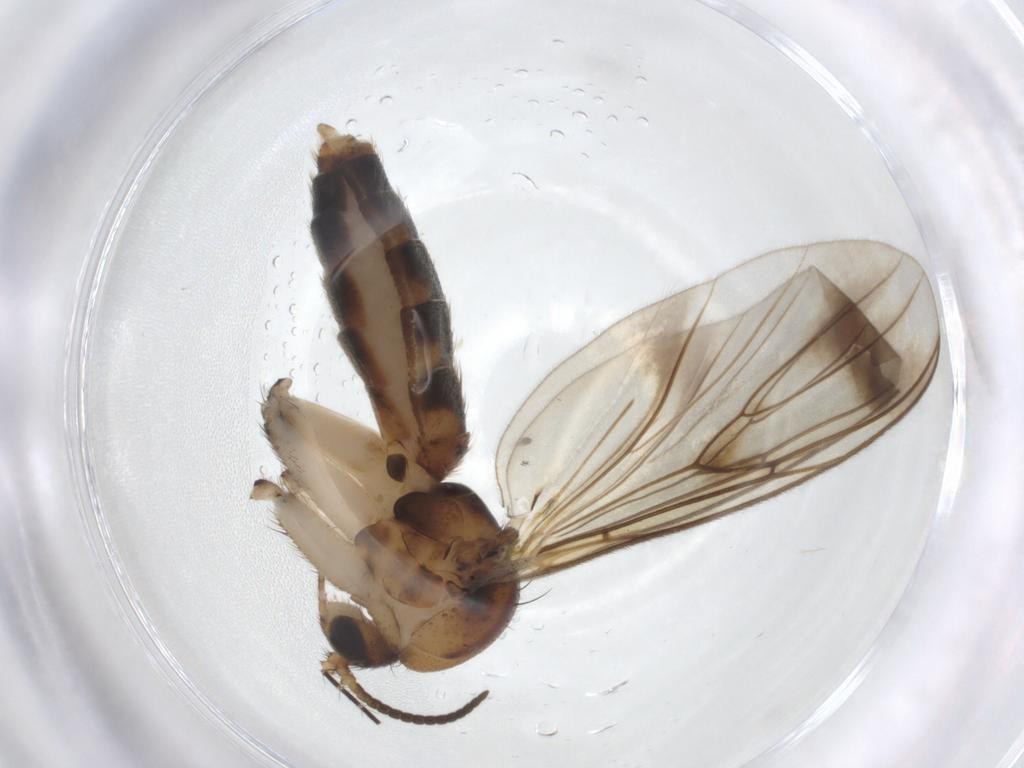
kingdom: Animalia
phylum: Arthropoda
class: Insecta
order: Diptera
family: Mycetophilidae
